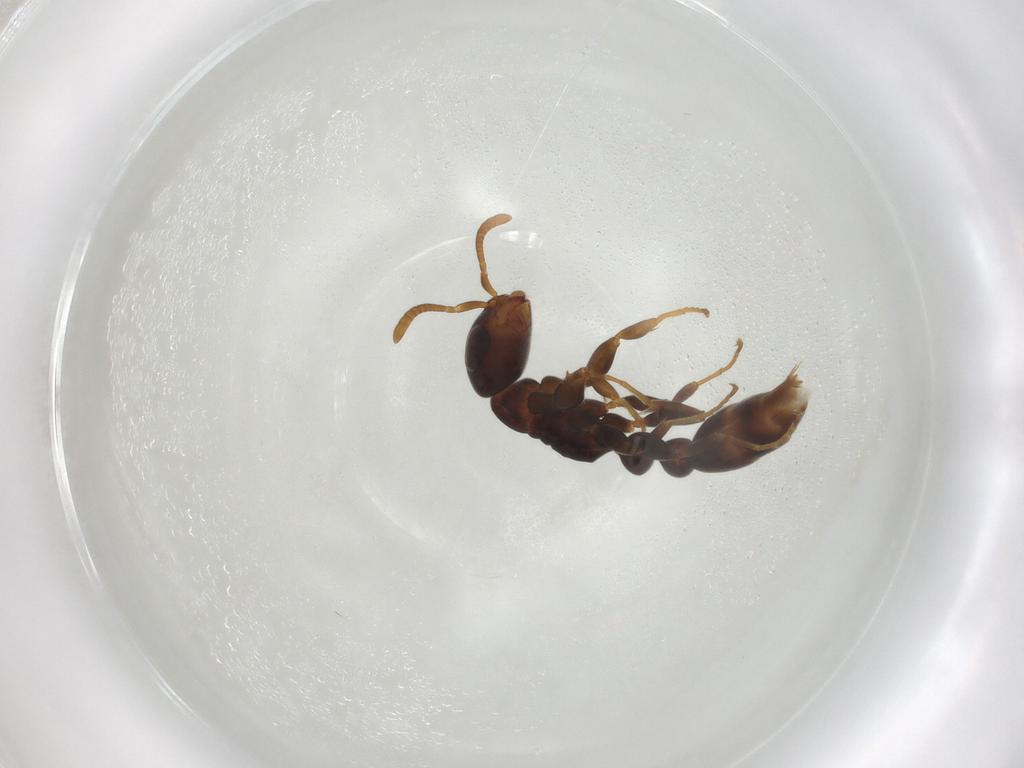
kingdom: Animalia
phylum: Arthropoda
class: Insecta
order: Hymenoptera
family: Formicidae
